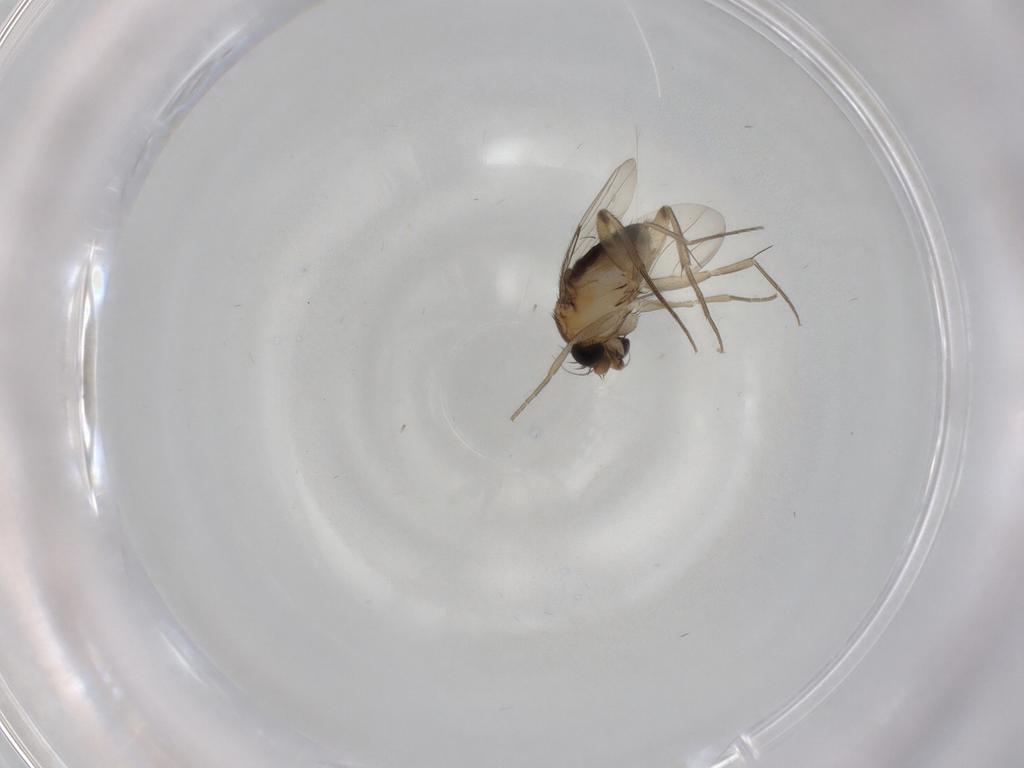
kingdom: Animalia
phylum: Arthropoda
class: Insecta
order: Diptera
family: Phoridae
